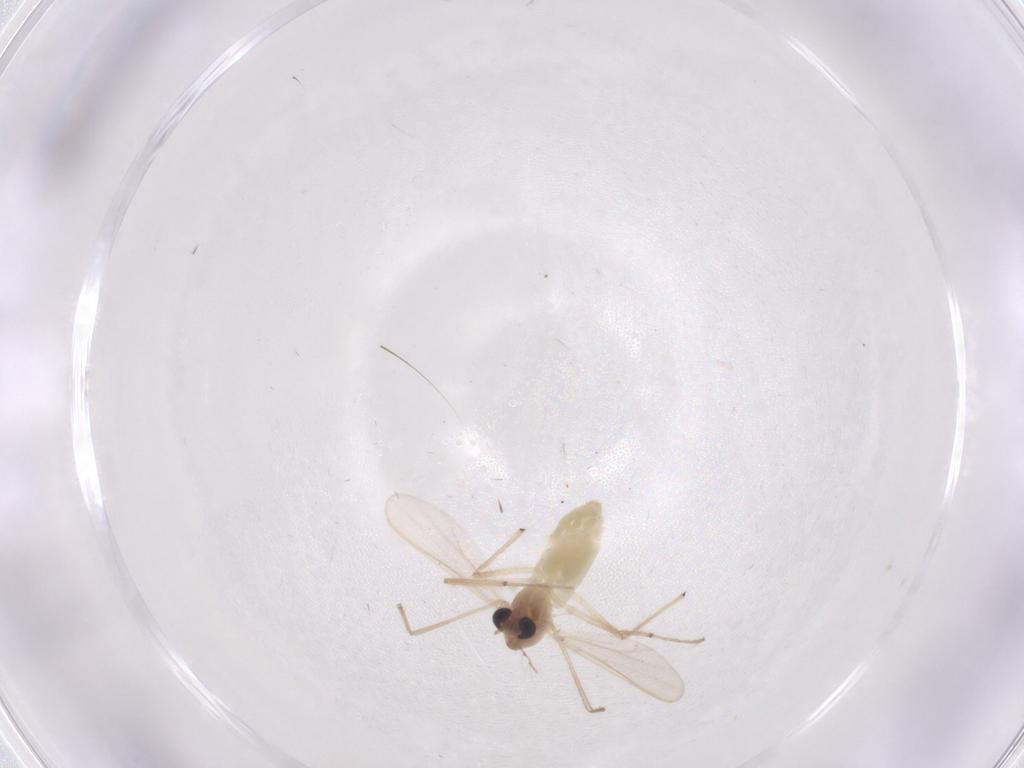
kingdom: Animalia
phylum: Arthropoda
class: Insecta
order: Diptera
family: Chironomidae
